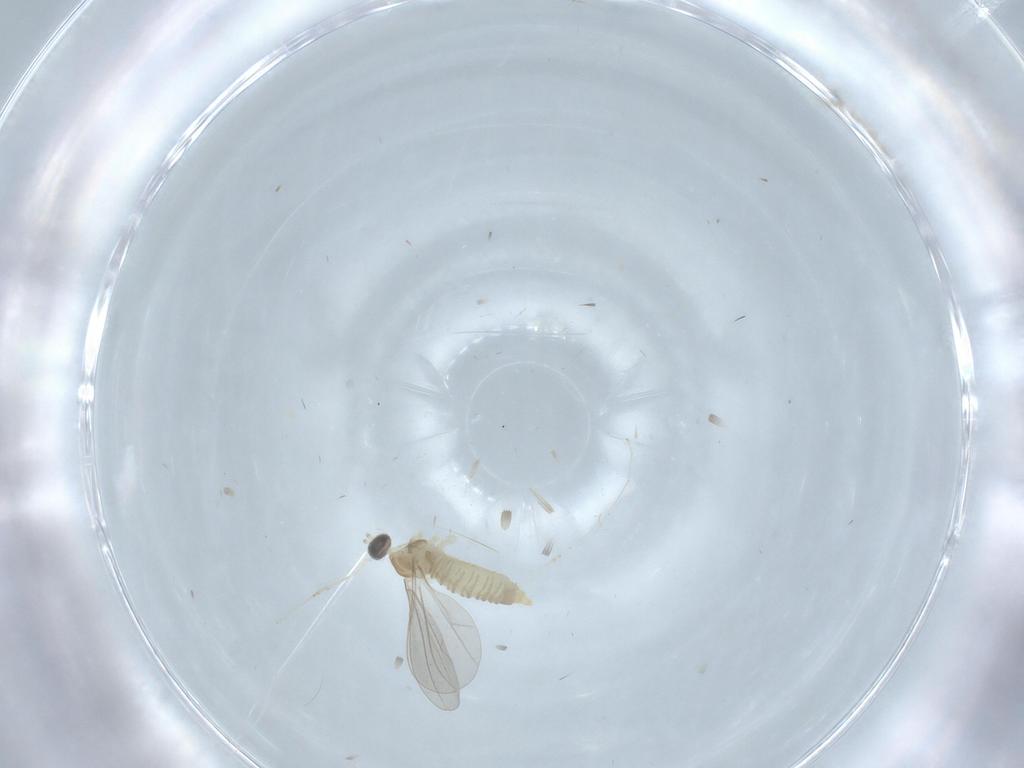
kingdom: Animalia
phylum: Arthropoda
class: Insecta
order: Diptera
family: Cecidomyiidae
